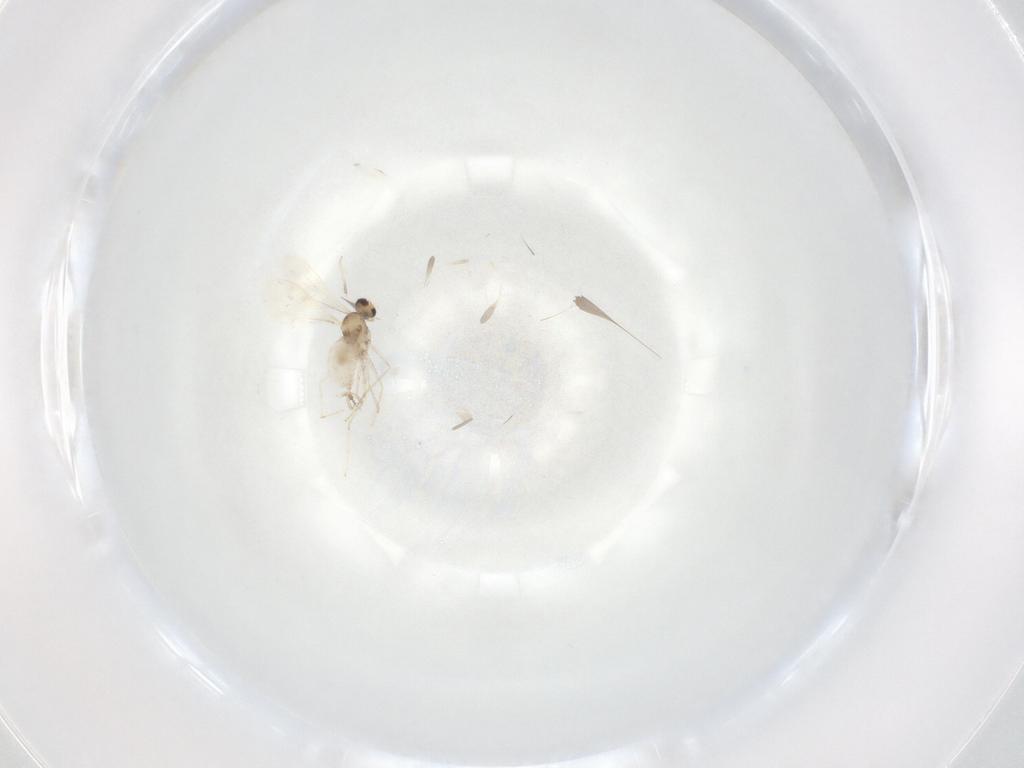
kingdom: Animalia
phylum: Arthropoda
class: Insecta
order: Diptera
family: Cecidomyiidae
